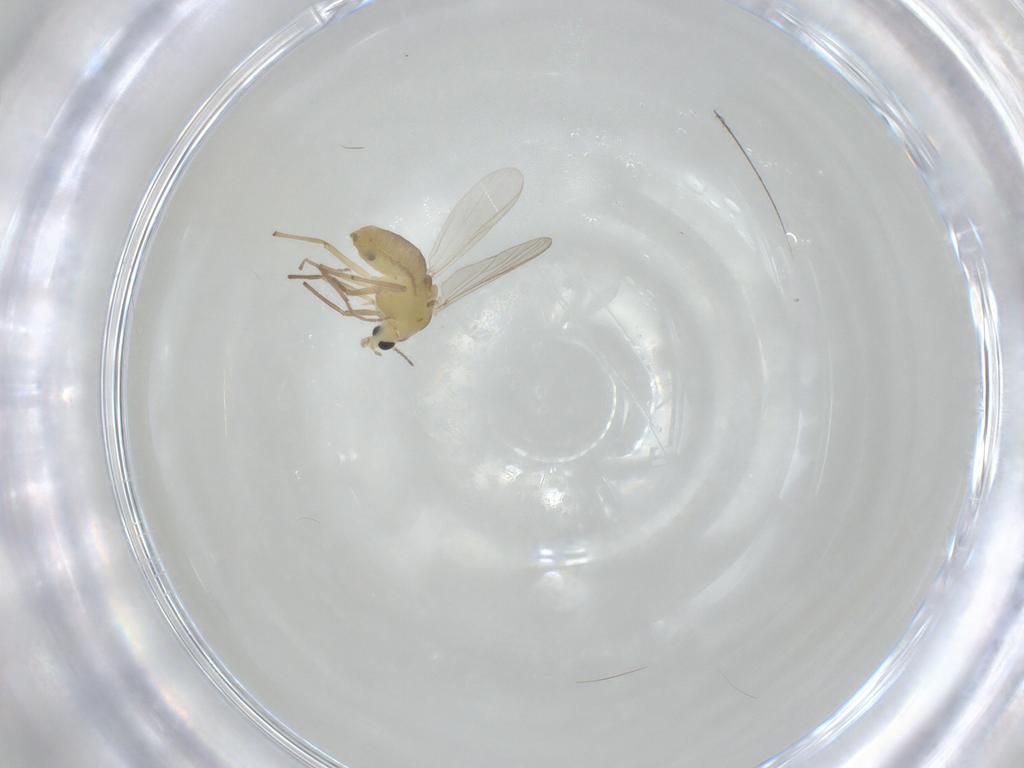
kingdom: Animalia
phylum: Arthropoda
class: Insecta
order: Diptera
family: Chironomidae
